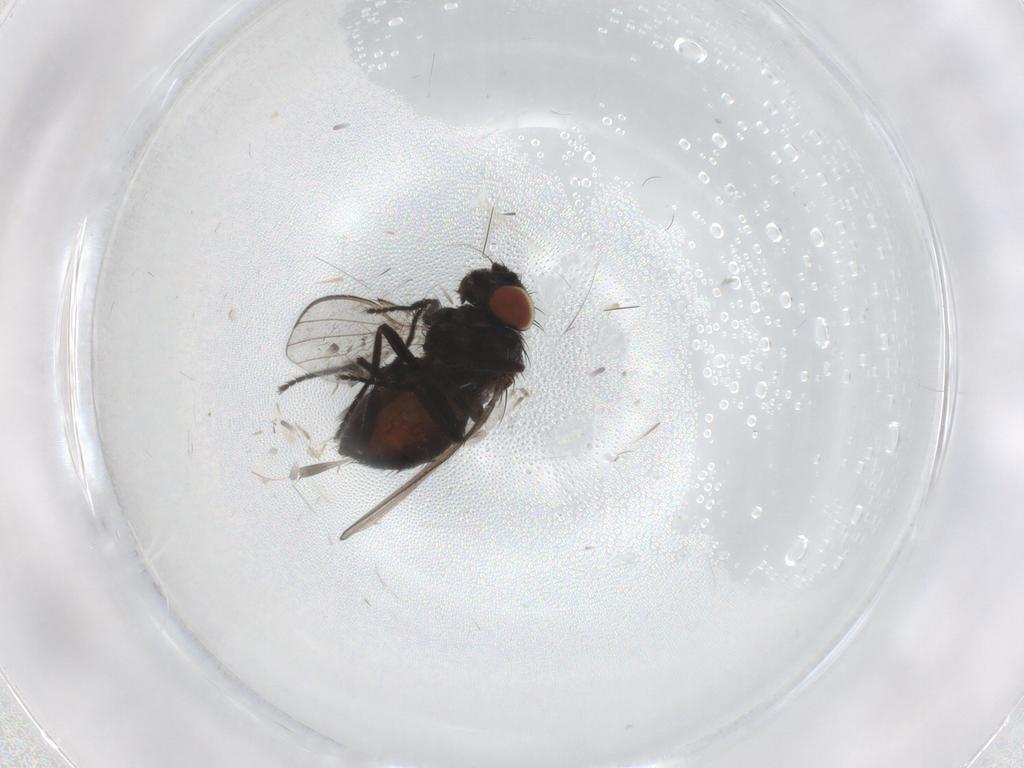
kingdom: Animalia
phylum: Arthropoda
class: Insecta
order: Diptera
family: Milichiidae
